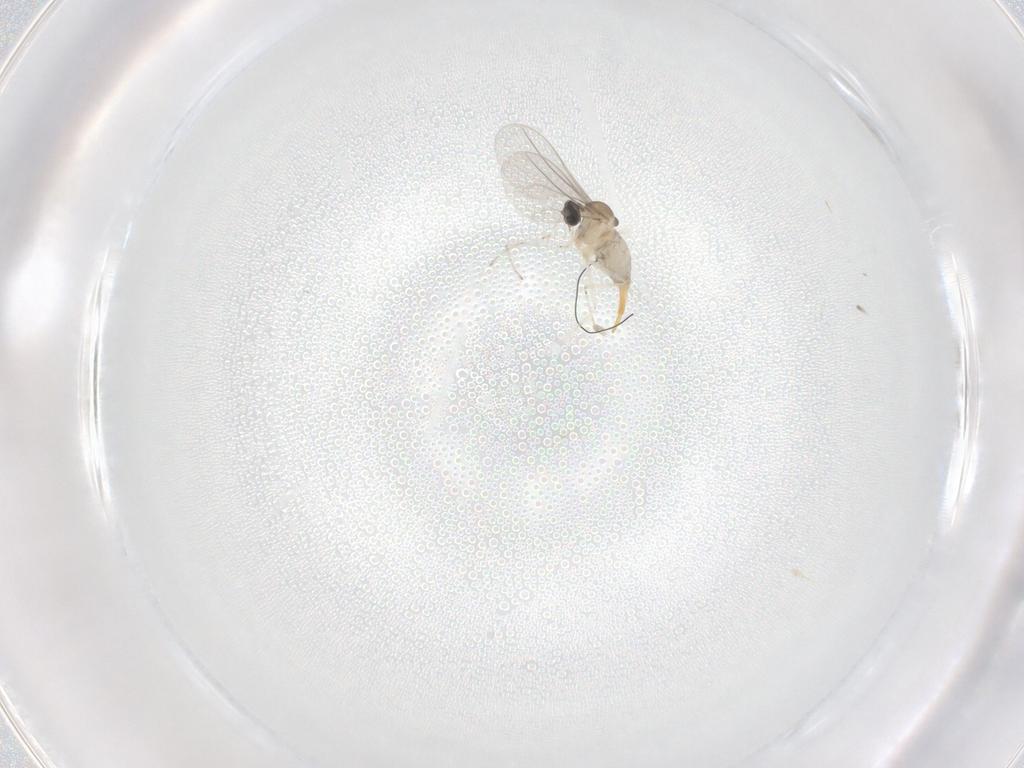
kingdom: Animalia
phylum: Arthropoda
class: Insecta
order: Diptera
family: Cecidomyiidae
